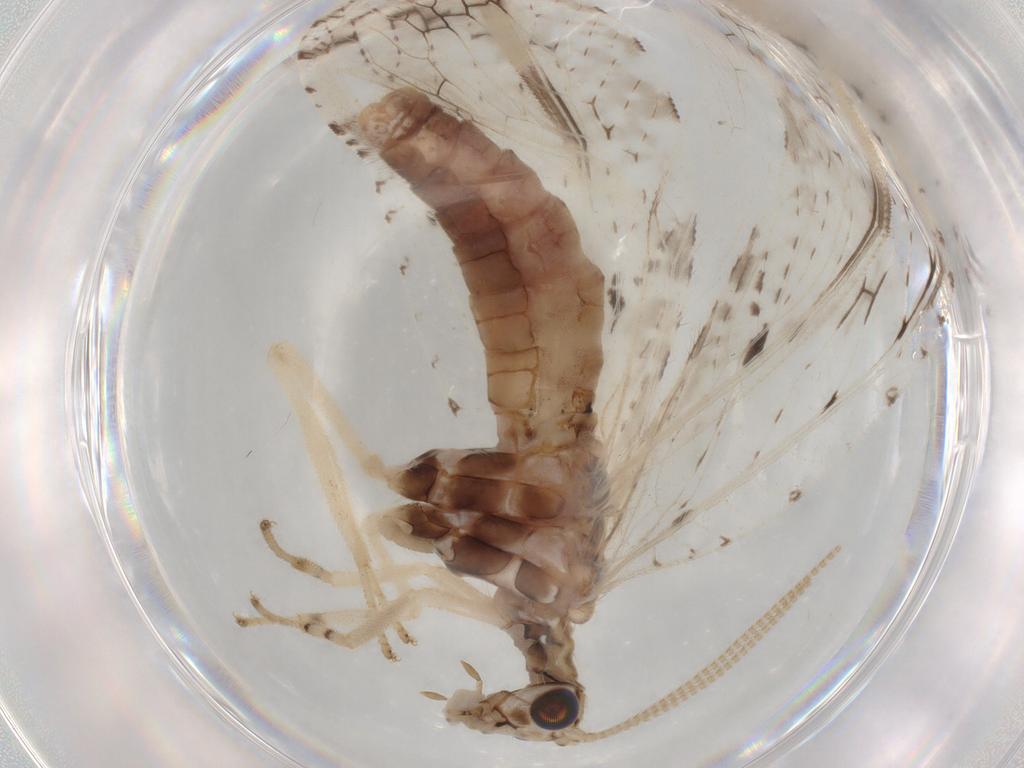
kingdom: Animalia
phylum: Arthropoda
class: Insecta
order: Neuroptera
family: Hemerobiidae
